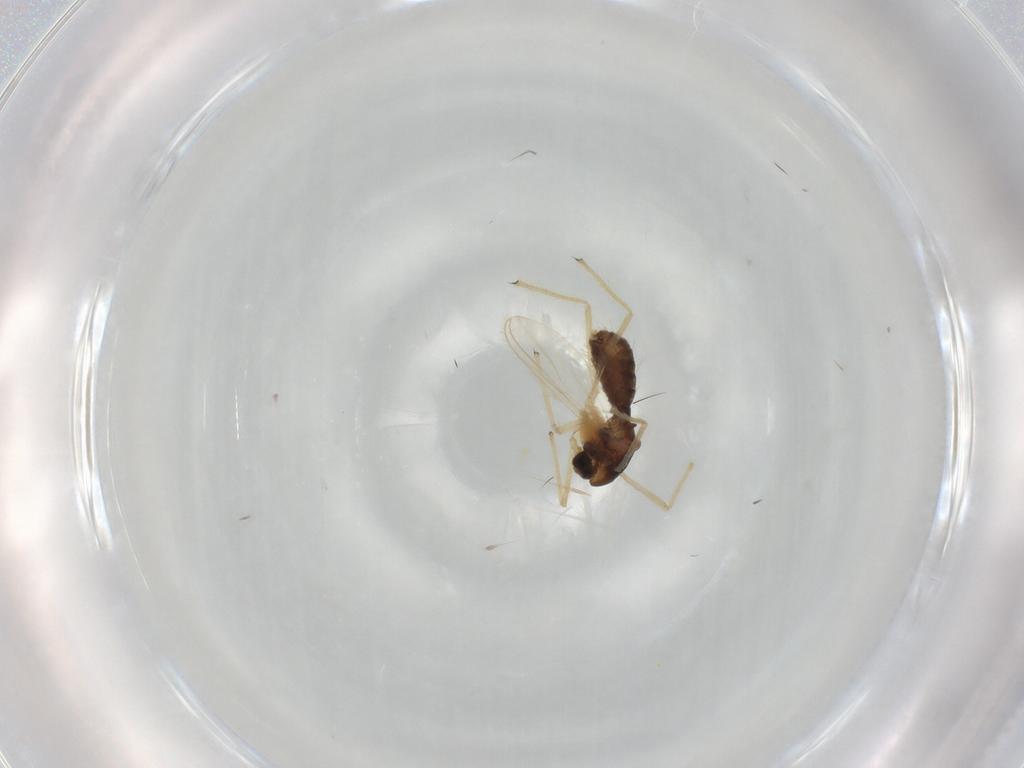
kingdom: Animalia
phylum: Arthropoda
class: Insecta
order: Diptera
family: Chironomidae
